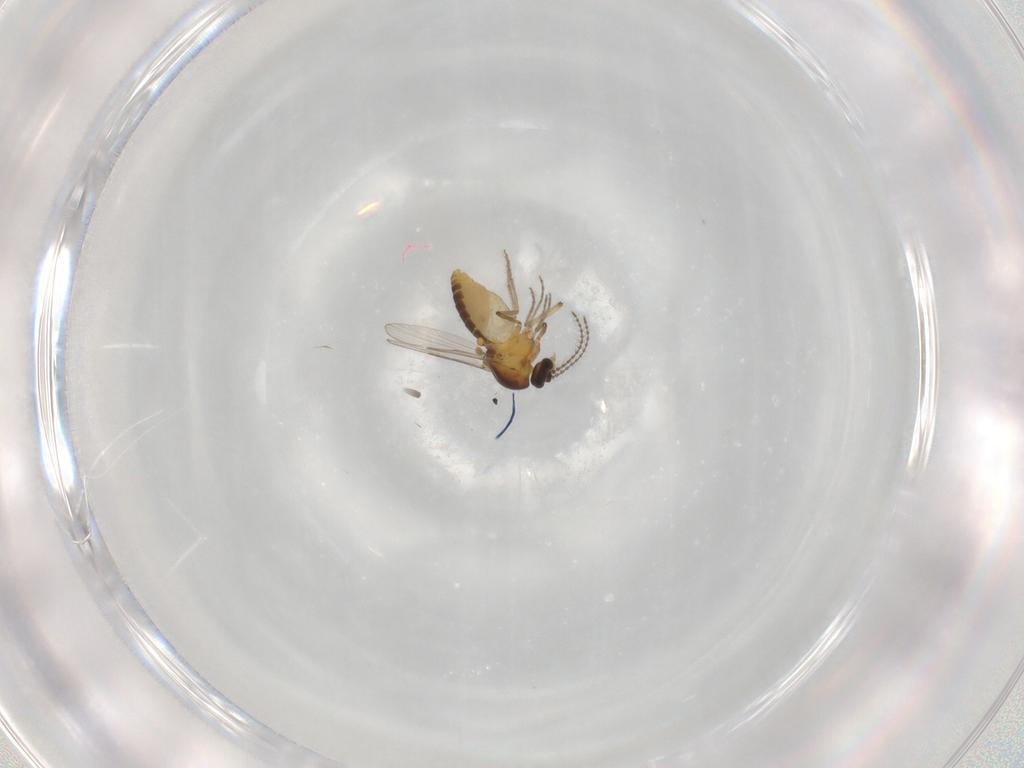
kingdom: Animalia
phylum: Arthropoda
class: Insecta
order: Diptera
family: Ceratopogonidae
